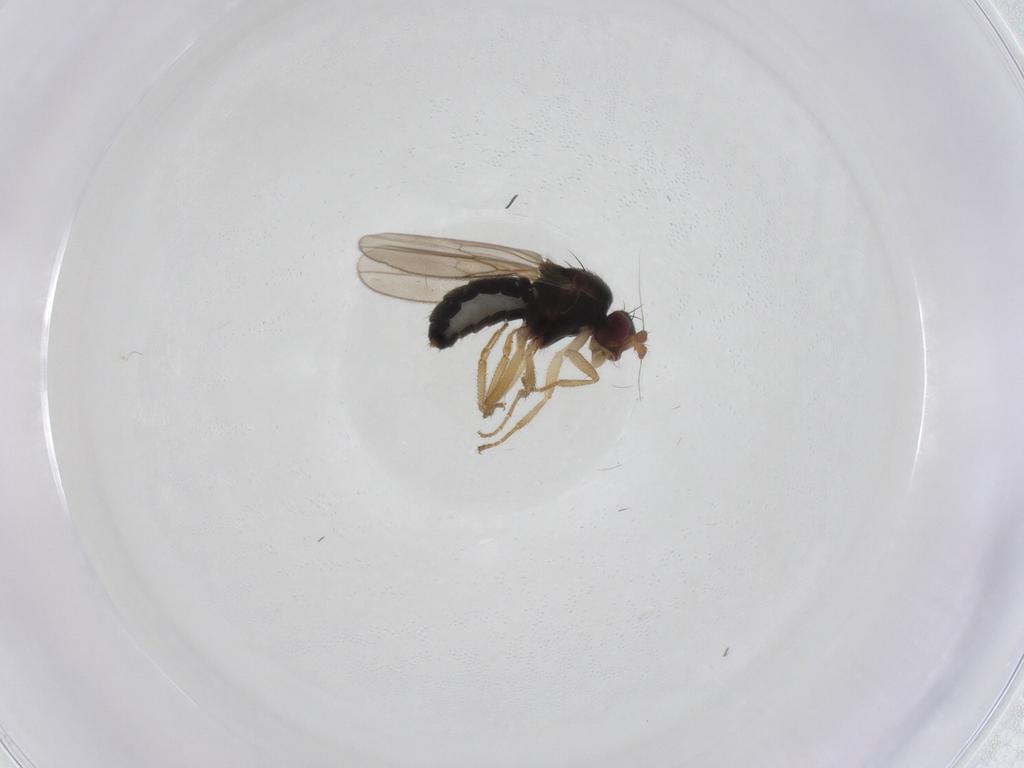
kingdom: Animalia
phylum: Arthropoda
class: Insecta
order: Diptera
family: Sphaeroceridae
